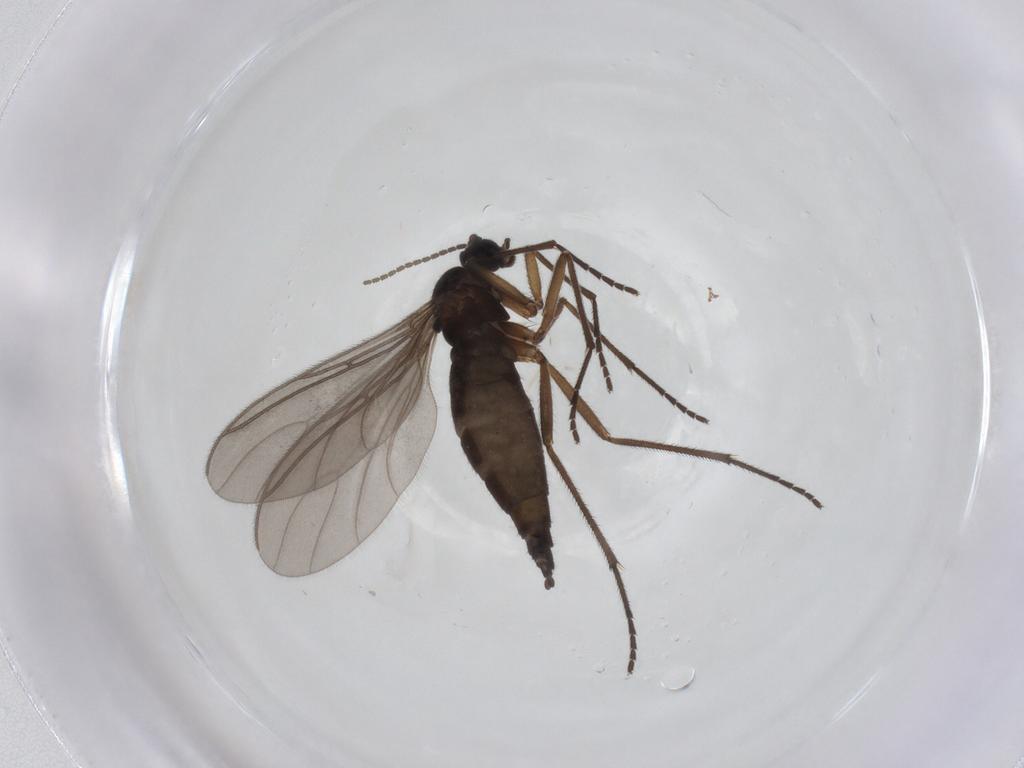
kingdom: Animalia
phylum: Arthropoda
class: Insecta
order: Diptera
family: Sciaridae
